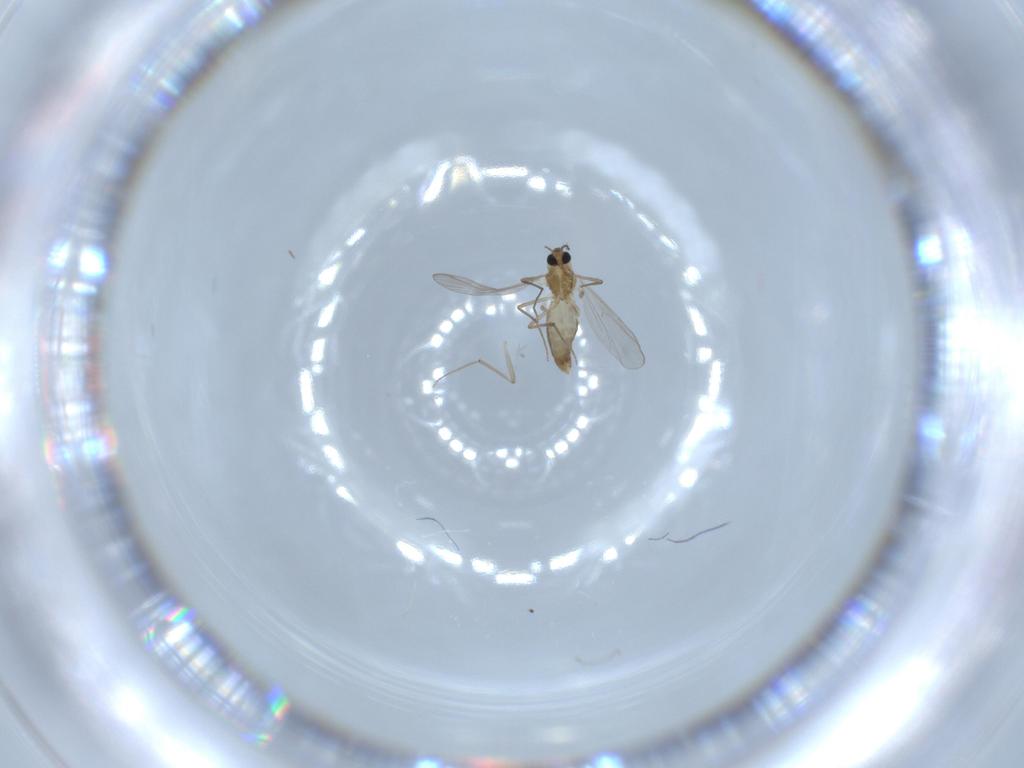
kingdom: Animalia
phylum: Arthropoda
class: Insecta
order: Diptera
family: Chironomidae
